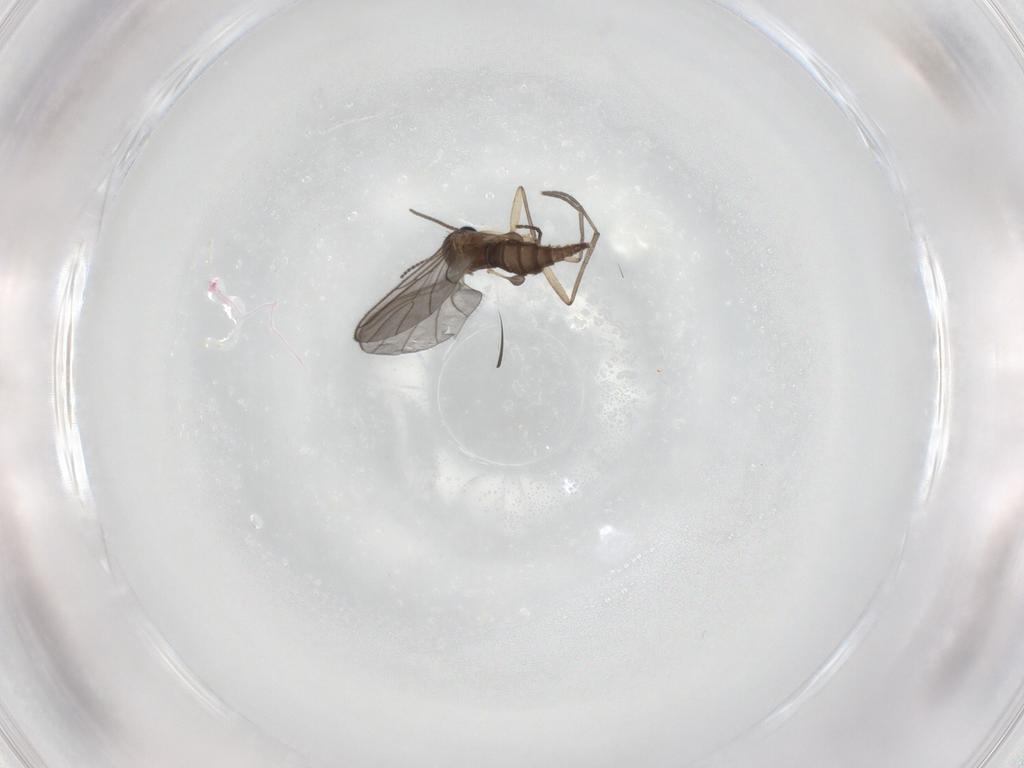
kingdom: Animalia
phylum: Arthropoda
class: Insecta
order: Diptera
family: Sciaridae
